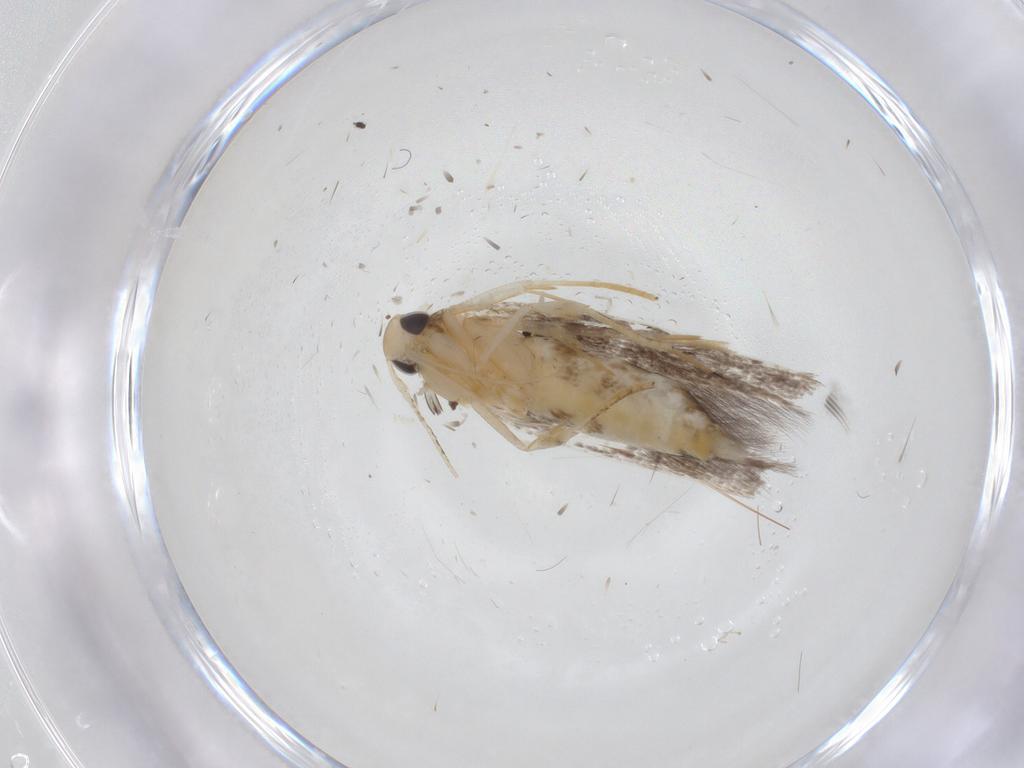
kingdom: Animalia
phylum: Arthropoda
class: Insecta
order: Lepidoptera
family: Cosmopterigidae
